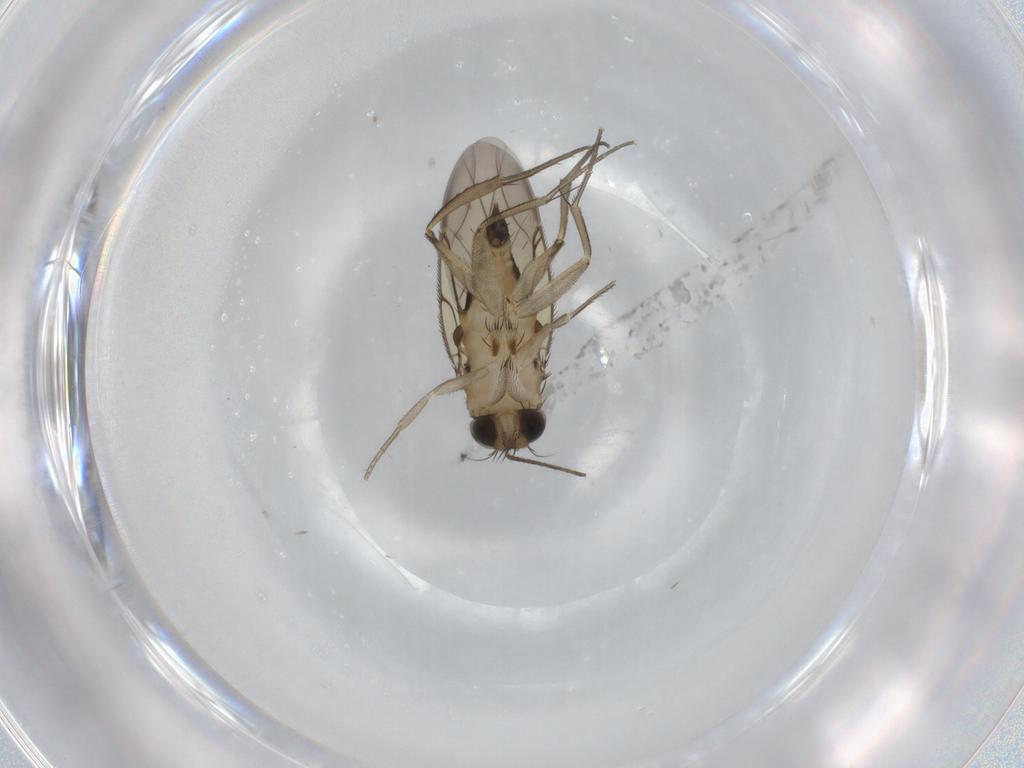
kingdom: Animalia
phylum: Arthropoda
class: Insecta
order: Diptera
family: Phoridae
